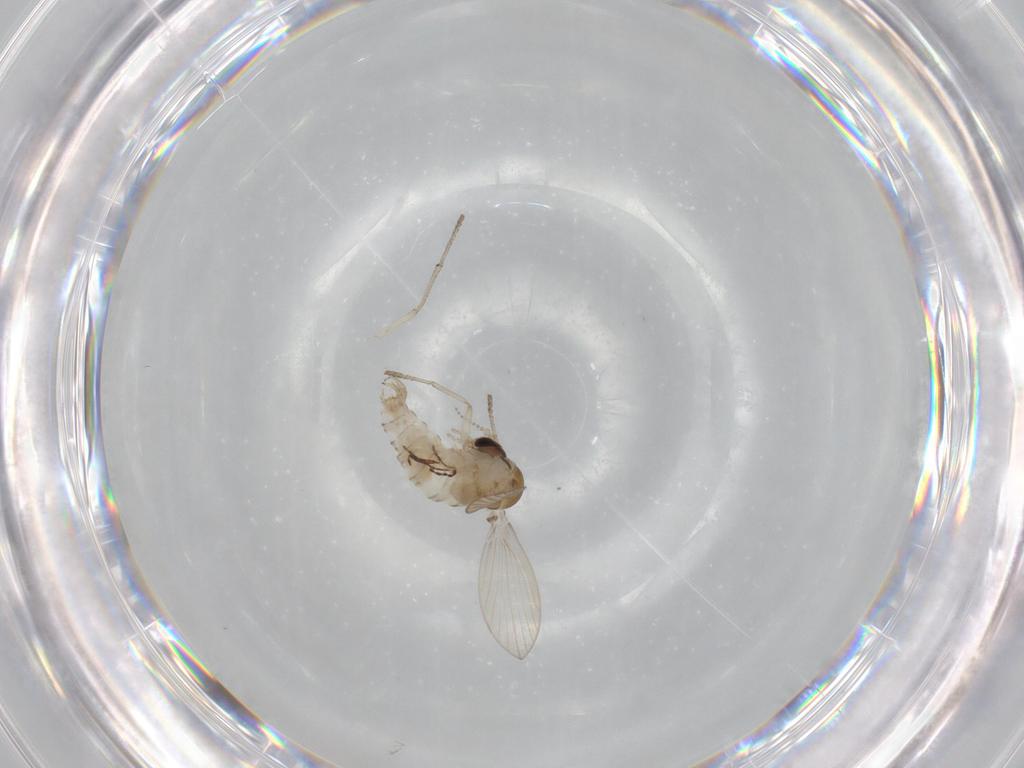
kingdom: Animalia
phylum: Arthropoda
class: Insecta
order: Diptera
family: Psychodidae
